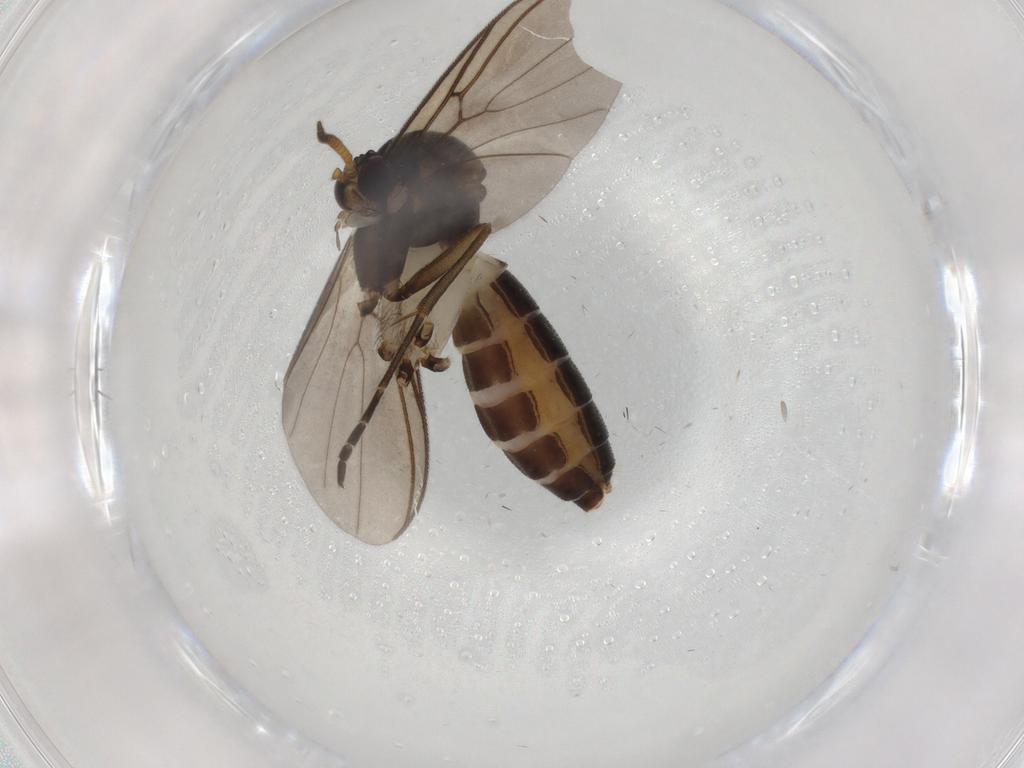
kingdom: Animalia
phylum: Arthropoda
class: Insecta
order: Diptera
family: Mycetophilidae
